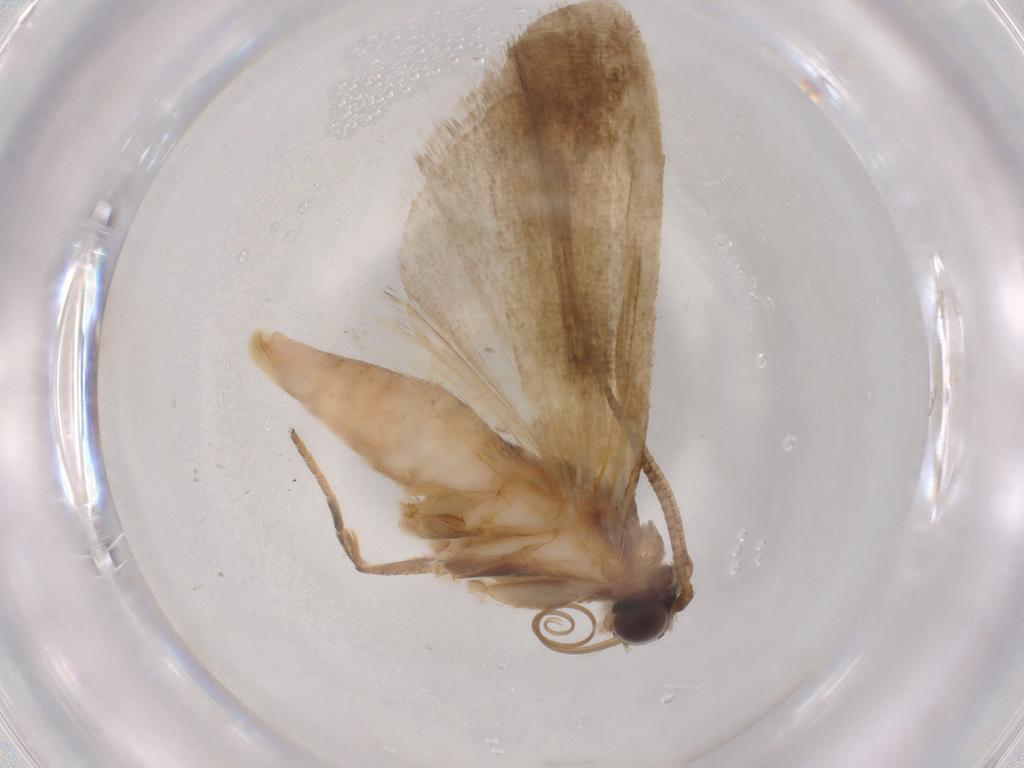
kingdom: Animalia
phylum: Arthropoda
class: Insecta
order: Lepidoptera
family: Noctuidae
